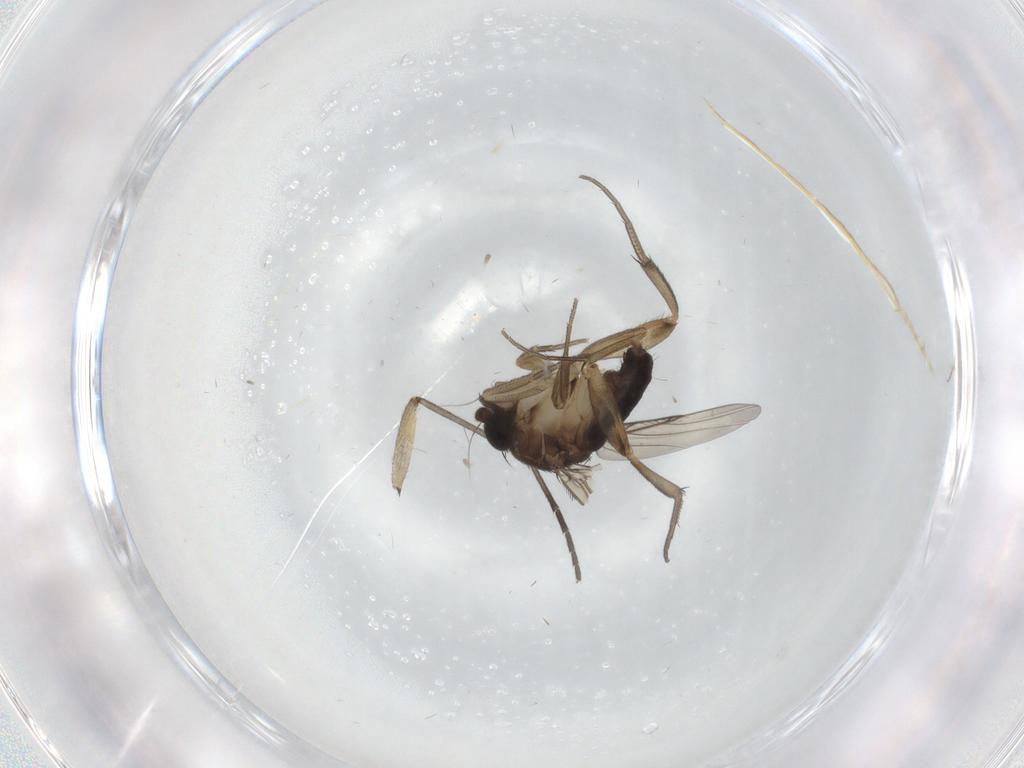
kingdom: Animalia
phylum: Arthropoda
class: Insecta
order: Diptera
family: Phoridae
